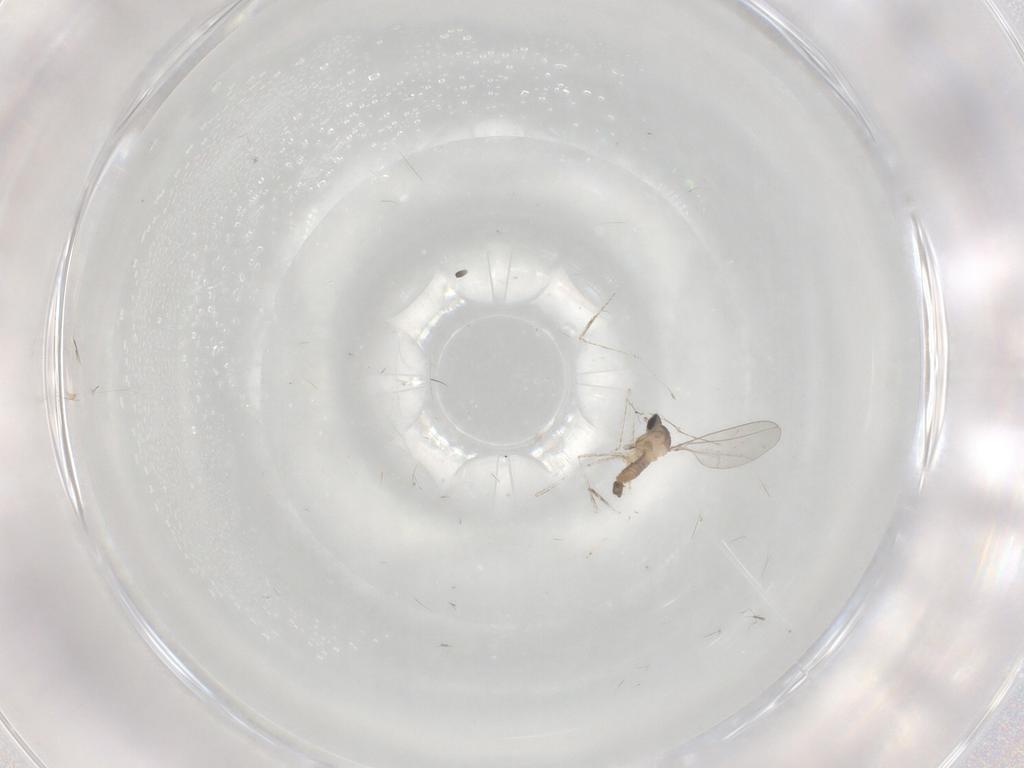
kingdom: Animalia
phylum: Arthropoda
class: Insecta
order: Diptera
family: Cecidomyiidae
